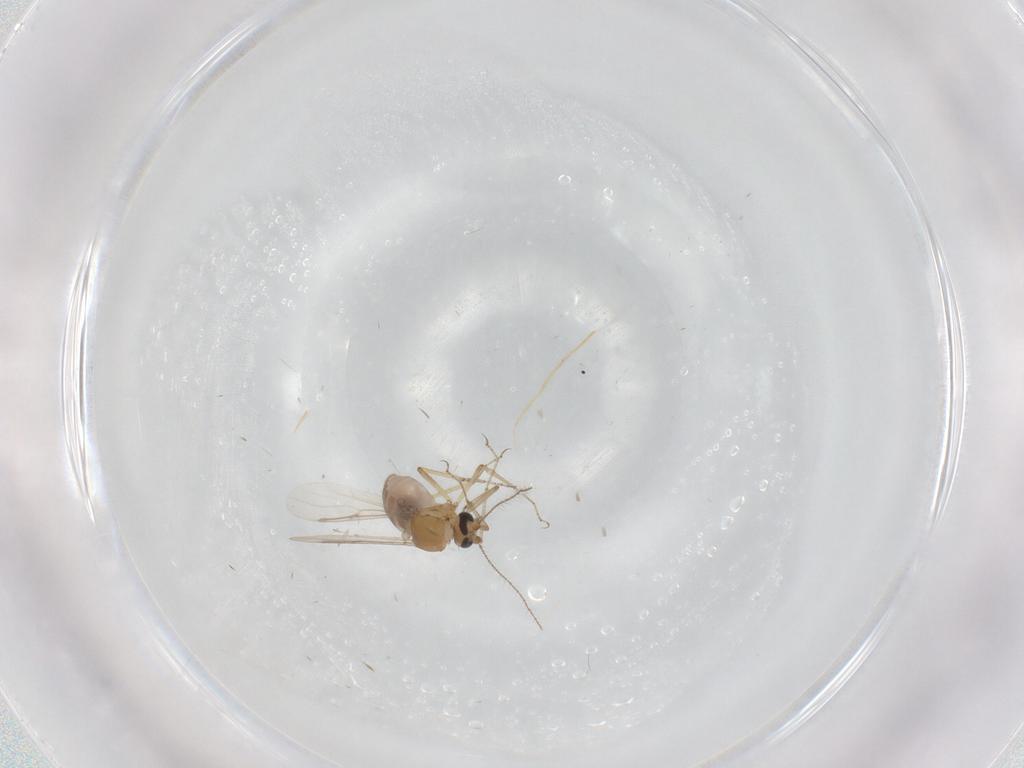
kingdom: Animalia
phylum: Arthropoda
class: Insecta
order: Diptera
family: Chironomidae
